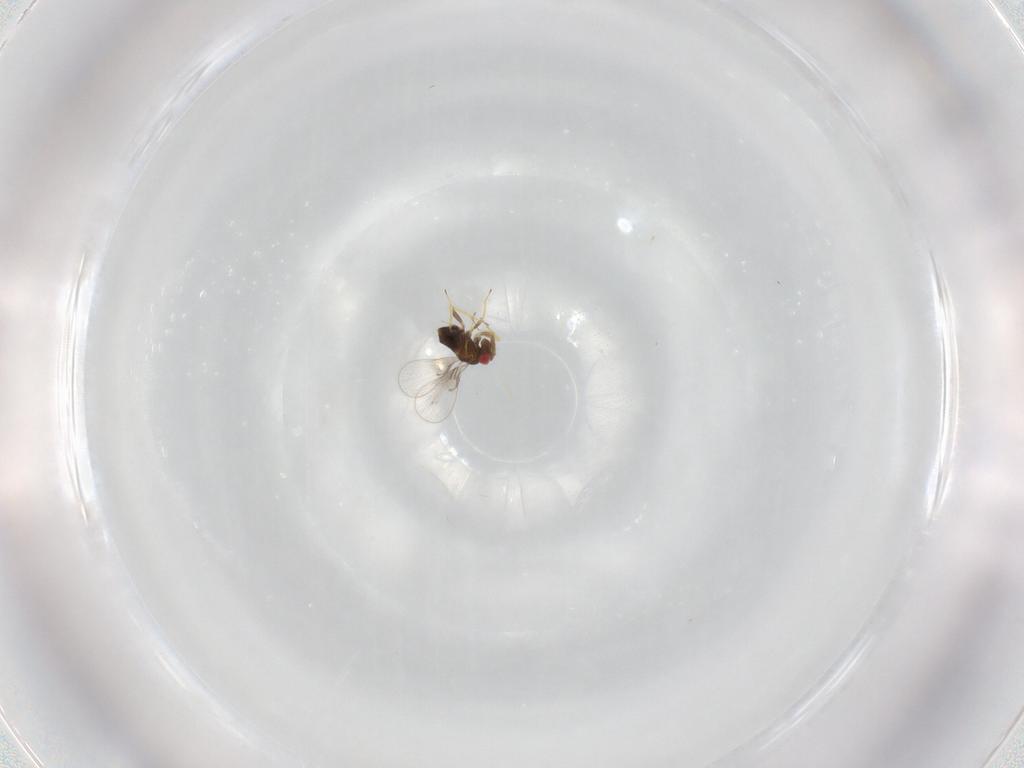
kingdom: Animalia
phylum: Arthropoda
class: Insecta
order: Hymenoptera
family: Trichogrammatidae
